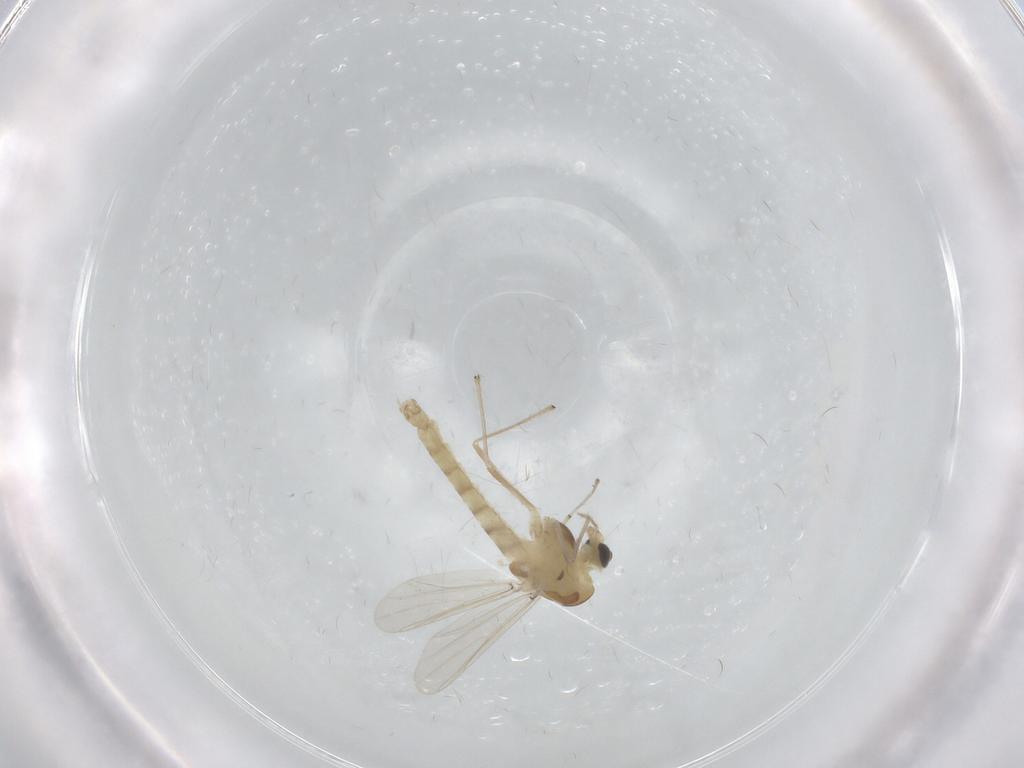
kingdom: Animalia
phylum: Arthropoda
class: Insecta
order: Diptera
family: Chironomidae
